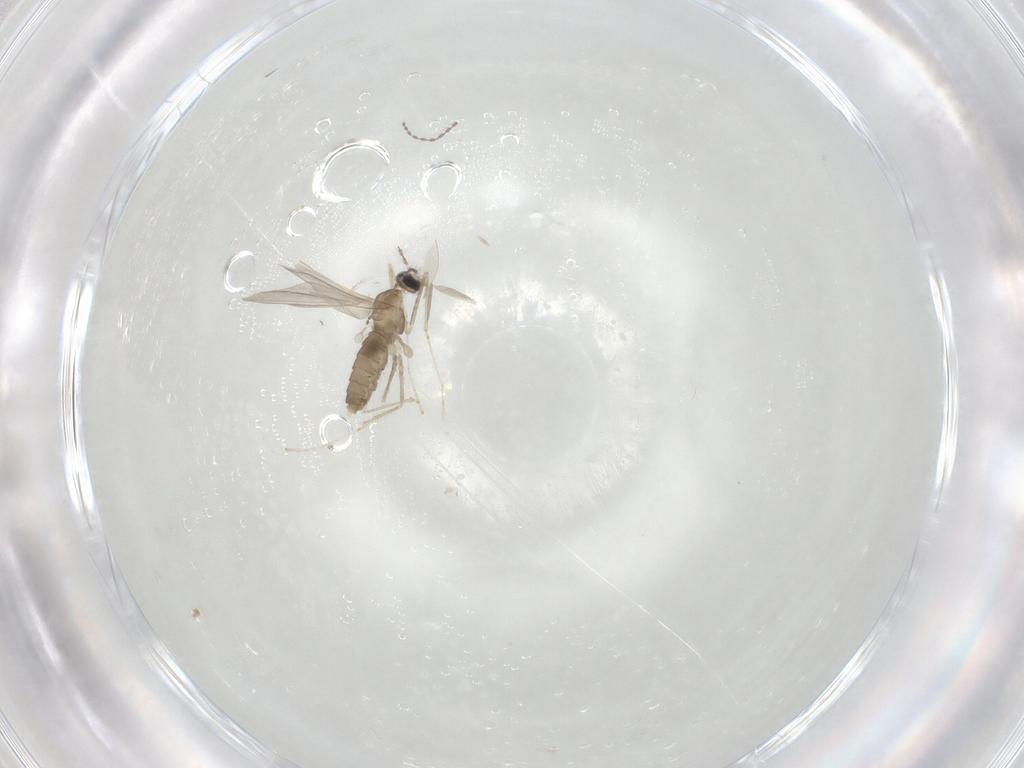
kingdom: Animalia
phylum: Arthropoda
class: Insecta
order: Diptera
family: Cecidomyiidae
